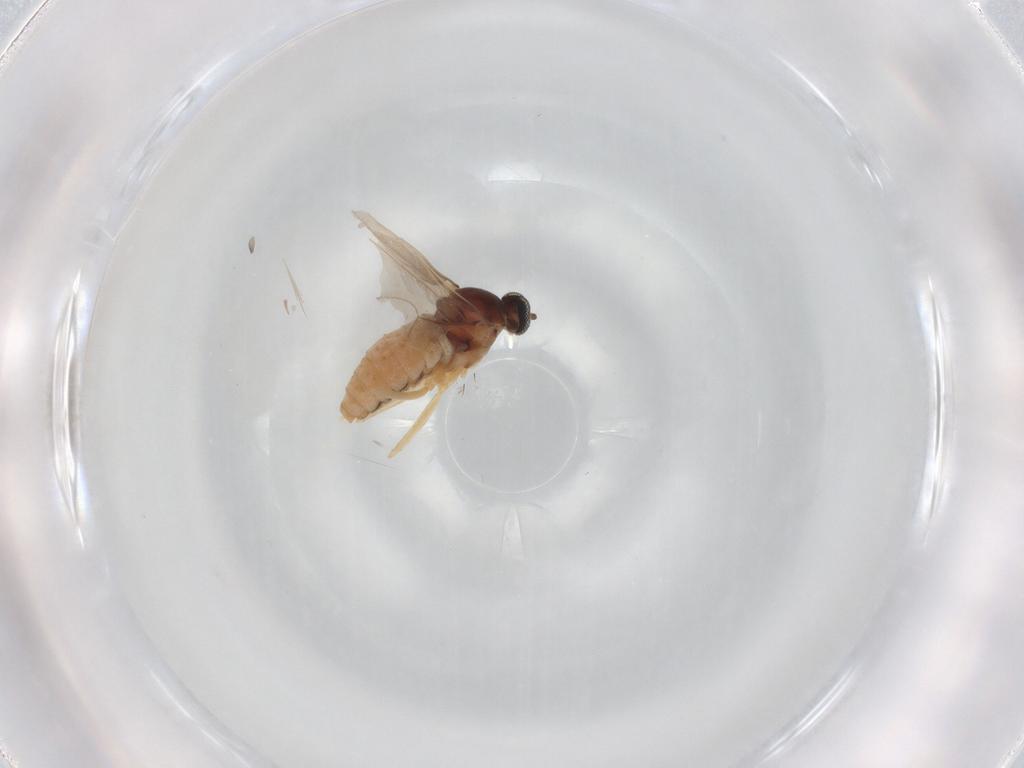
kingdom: Animalia
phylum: Arthropoda
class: Insecta
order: Diptera
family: Cecidomyiidae
